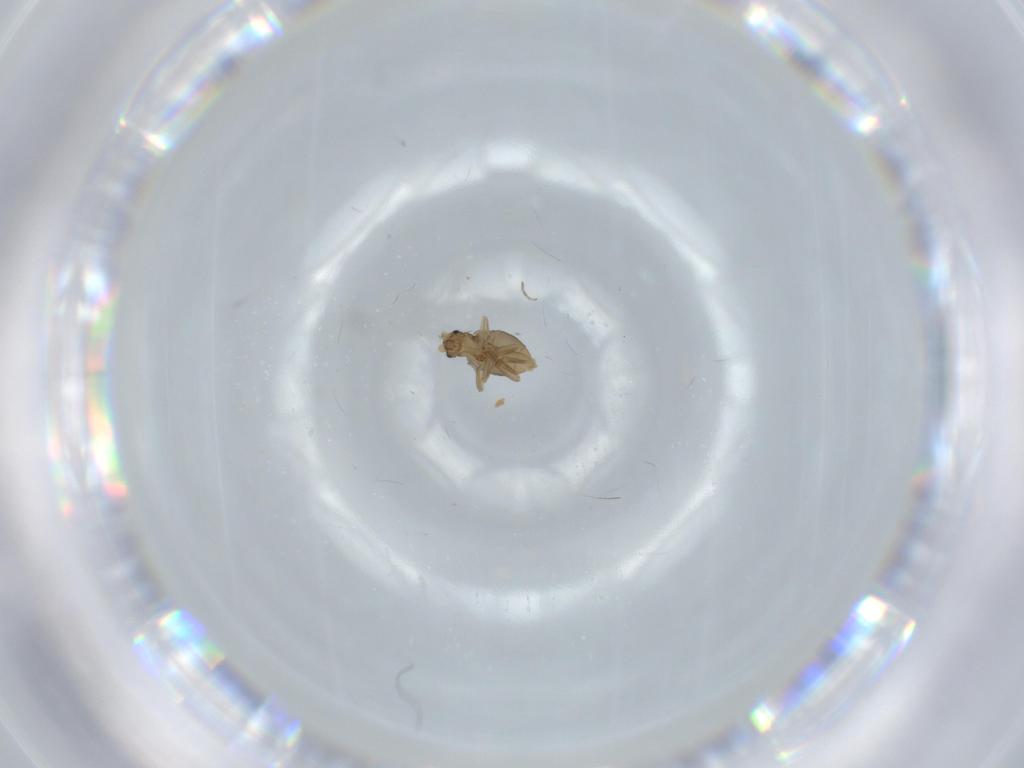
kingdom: Animalia
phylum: Arthropoda
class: Insecta
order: Diptera
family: Phoridae
